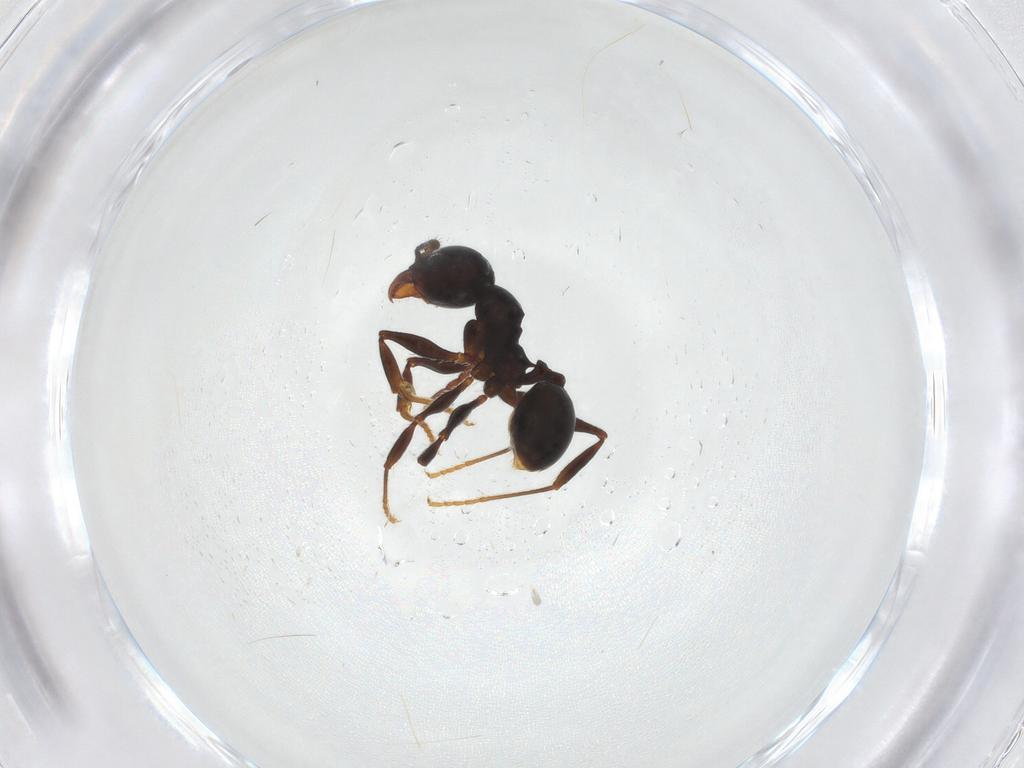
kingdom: Animalia
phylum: Arthropoda
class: Insecta
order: Hymenoptera
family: Formicidae
